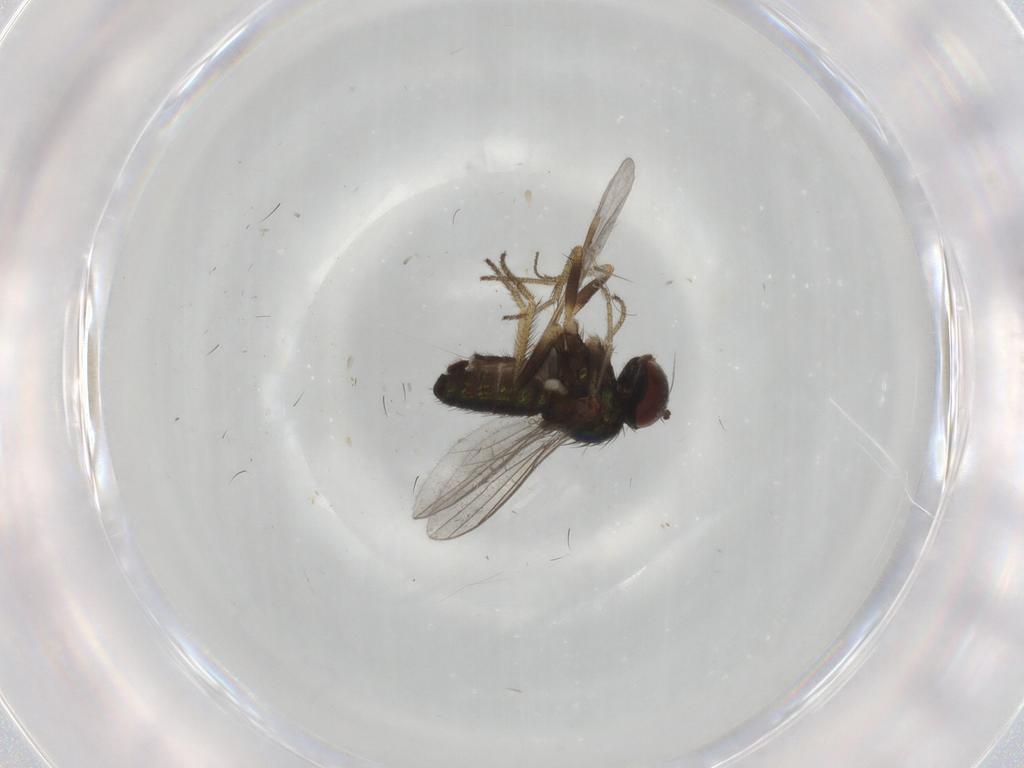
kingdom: Animalia
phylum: Arthropoda
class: Insecta
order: Diptera
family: Dolichopodidae
